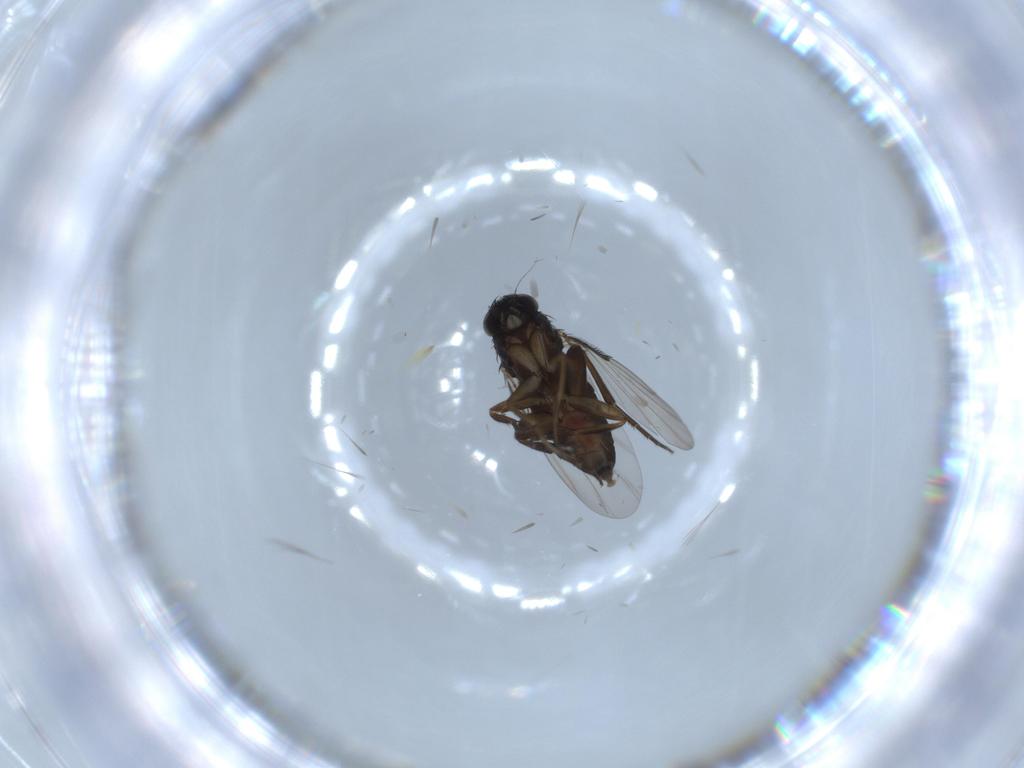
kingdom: Animalia
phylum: Arthropoda
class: Insecta
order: Diptera
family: Phoridae
